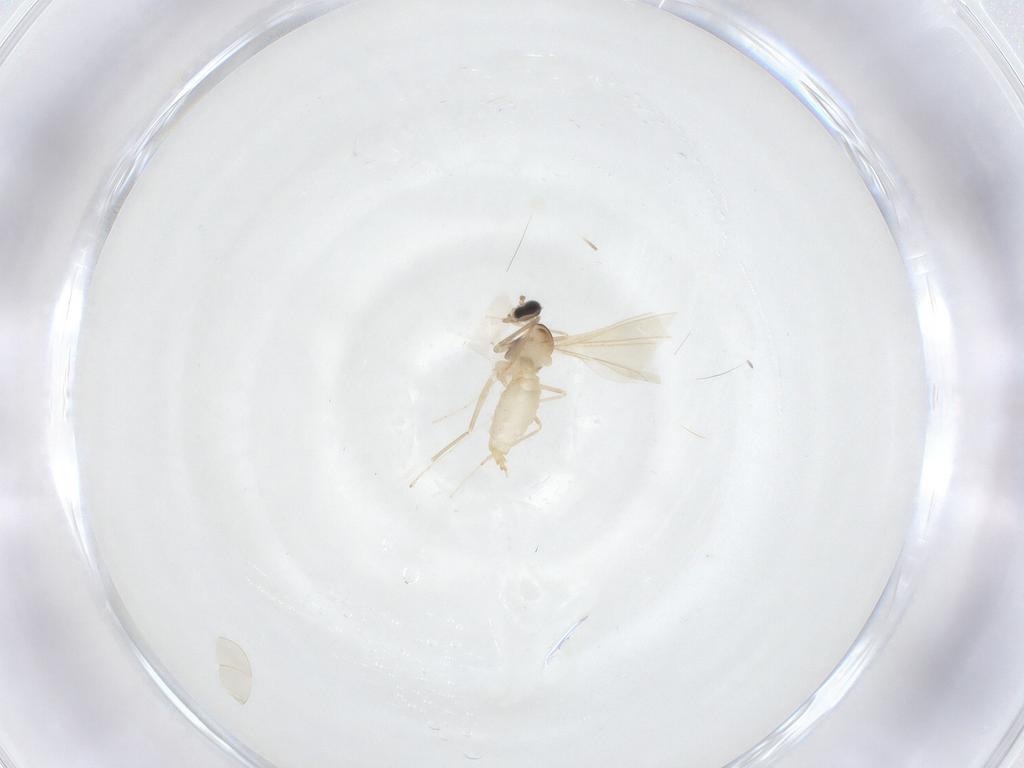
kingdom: Animalia
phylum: Arthropoda
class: Insecta
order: Diptera
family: Cecidomyiidae
